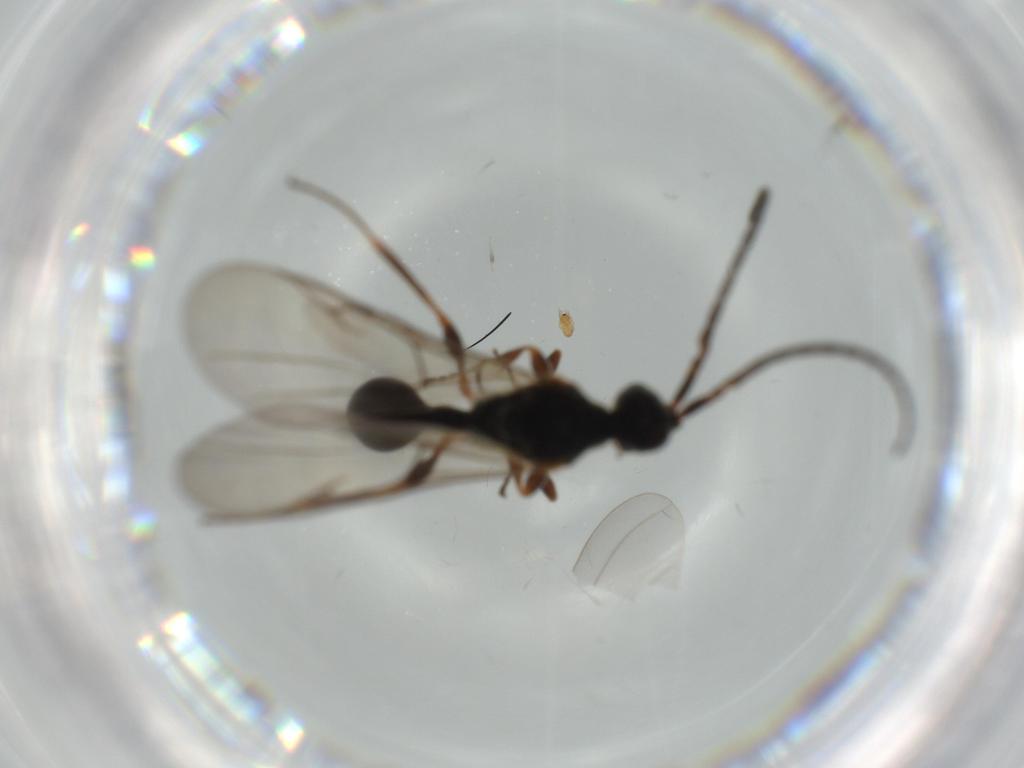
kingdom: Animalia
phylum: Arthropoda
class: Insecta
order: Hymenoptera
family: Diapriidae
